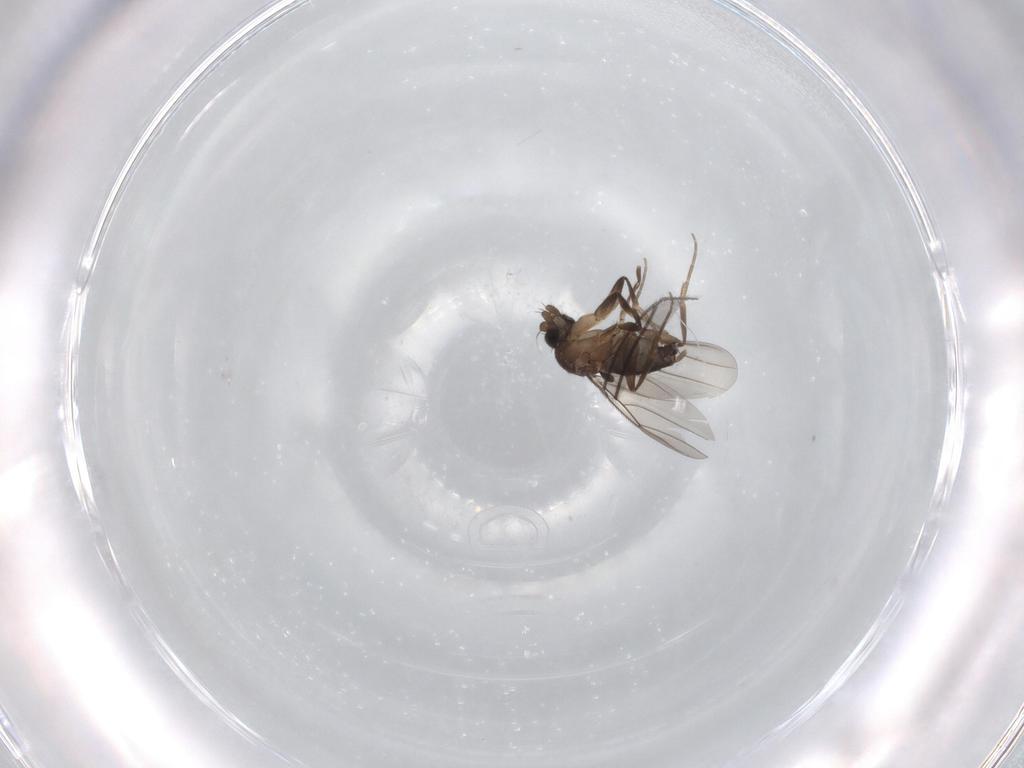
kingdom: Animalia
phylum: Arthropoda
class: Insecta
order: Diptera
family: Phoridae
